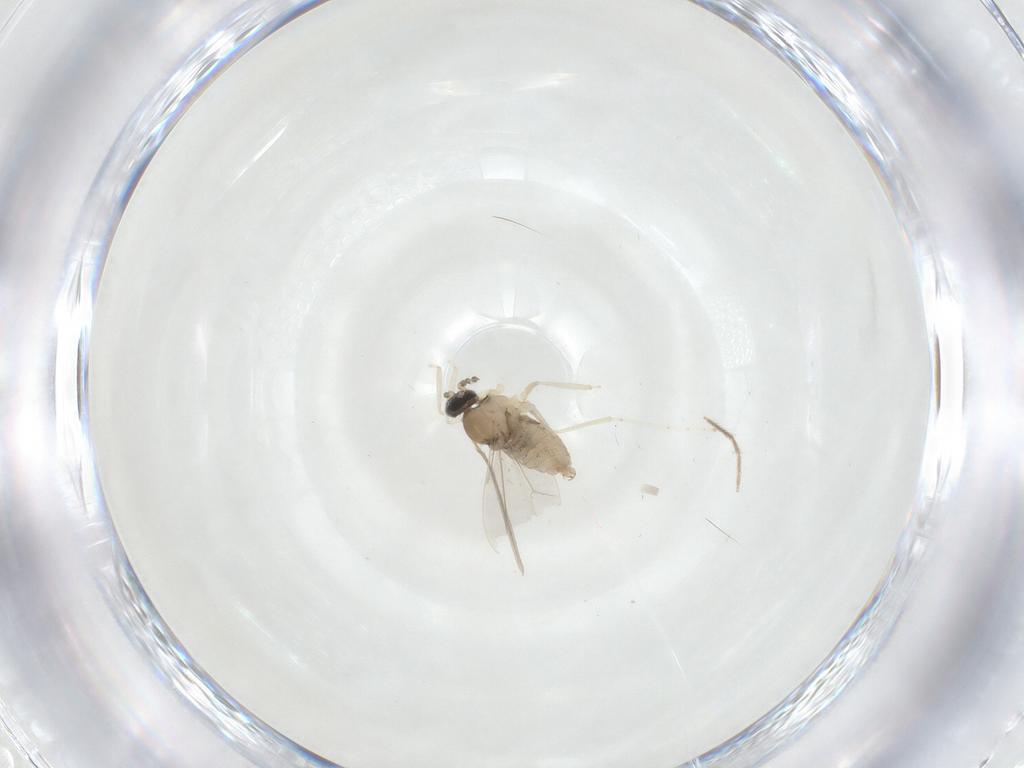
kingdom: Animalia
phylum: Arthropoda
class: Insecta
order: Diptera
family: Cecidomyiidae
